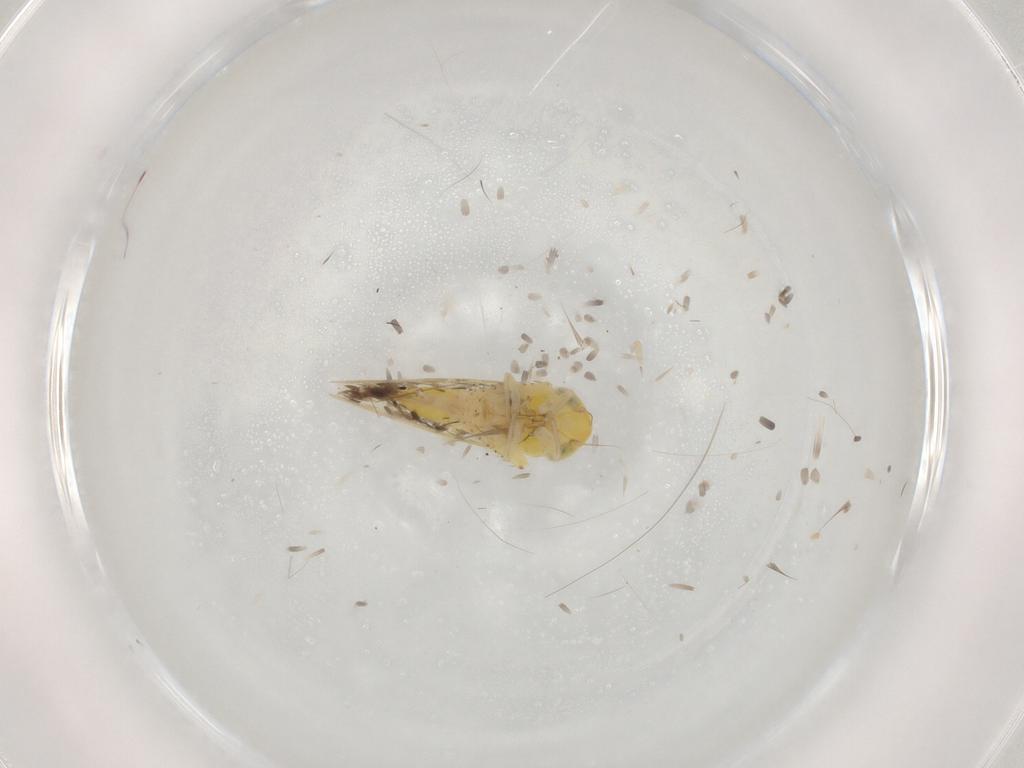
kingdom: Animalia
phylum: Arthropoda
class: Insecta
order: Hemiptera
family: Cicadellidae
